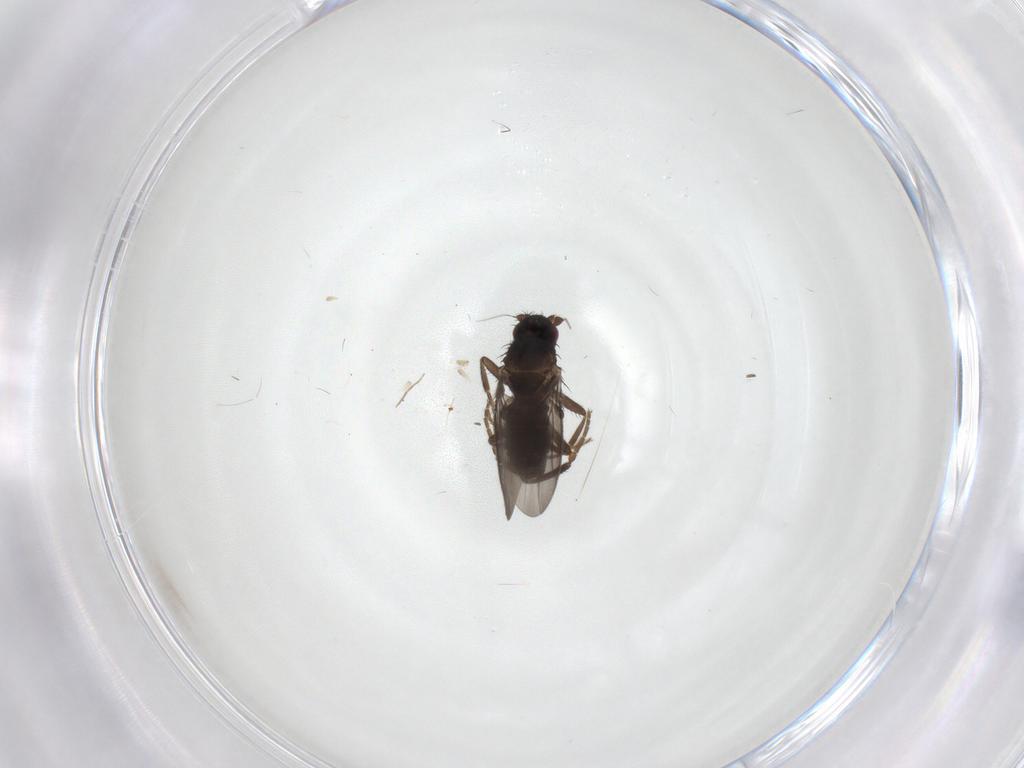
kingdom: Animalia
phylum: Arthropoda
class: Insecta
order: Diptera
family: Sphaeroceridae
